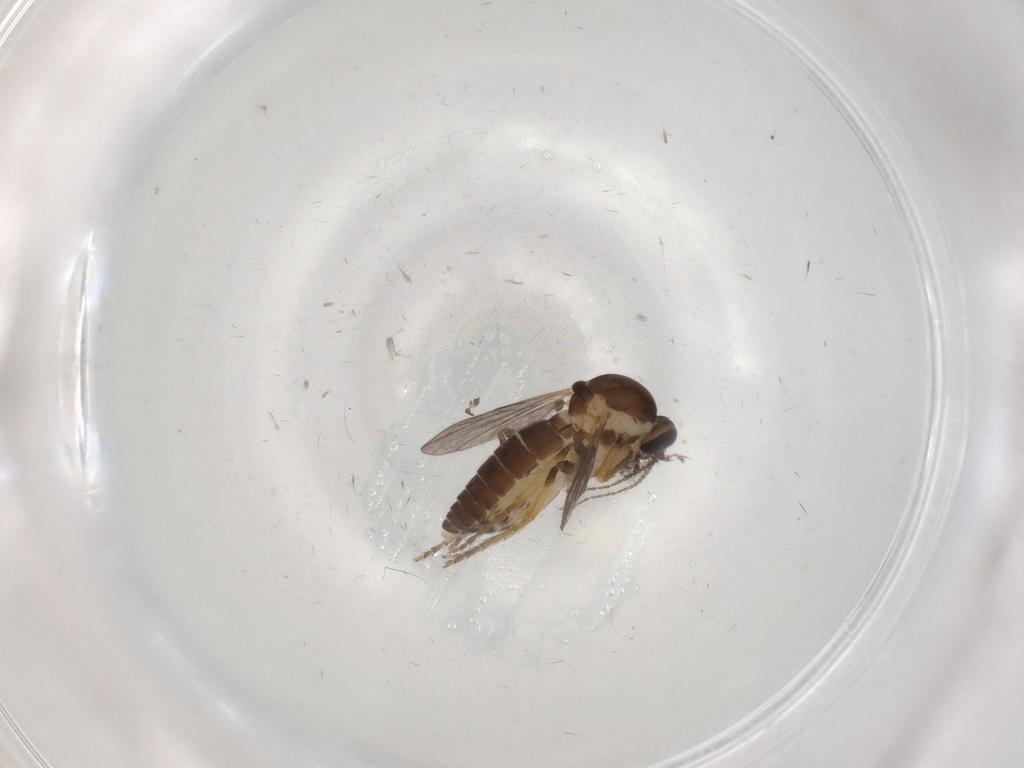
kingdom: Animalia
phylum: Arthropoda
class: Insecta
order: Diptera
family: Ceratopogonidae
